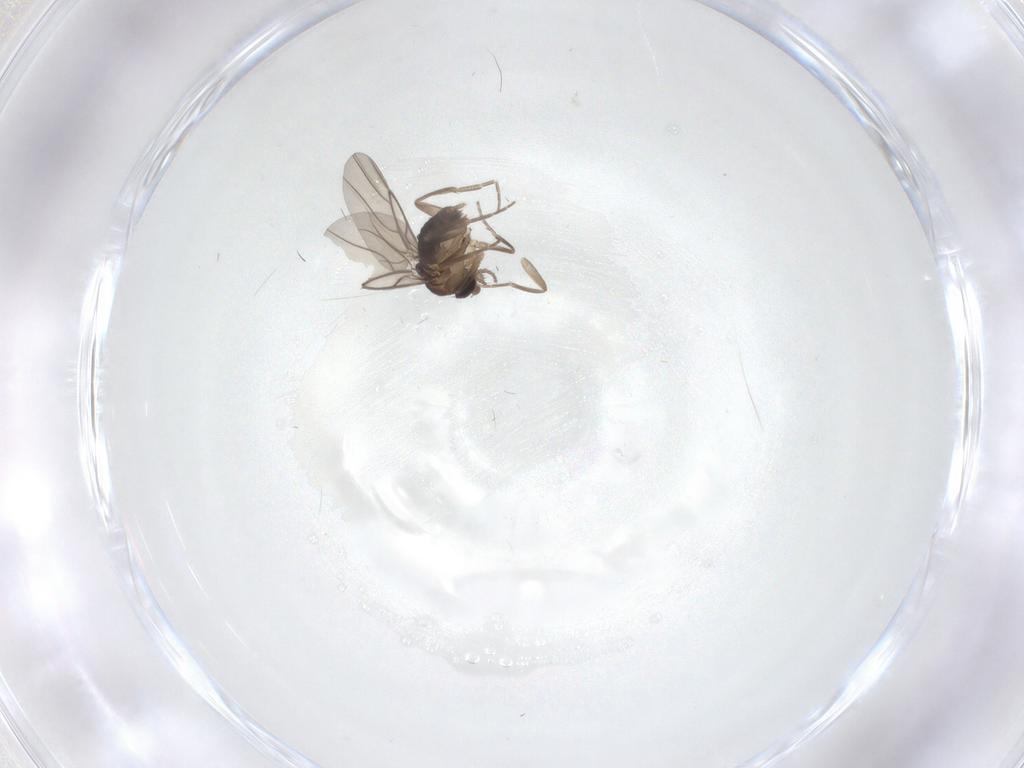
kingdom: Animalia
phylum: Arthropoda
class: Insecta
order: Diptera
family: Phoridae
